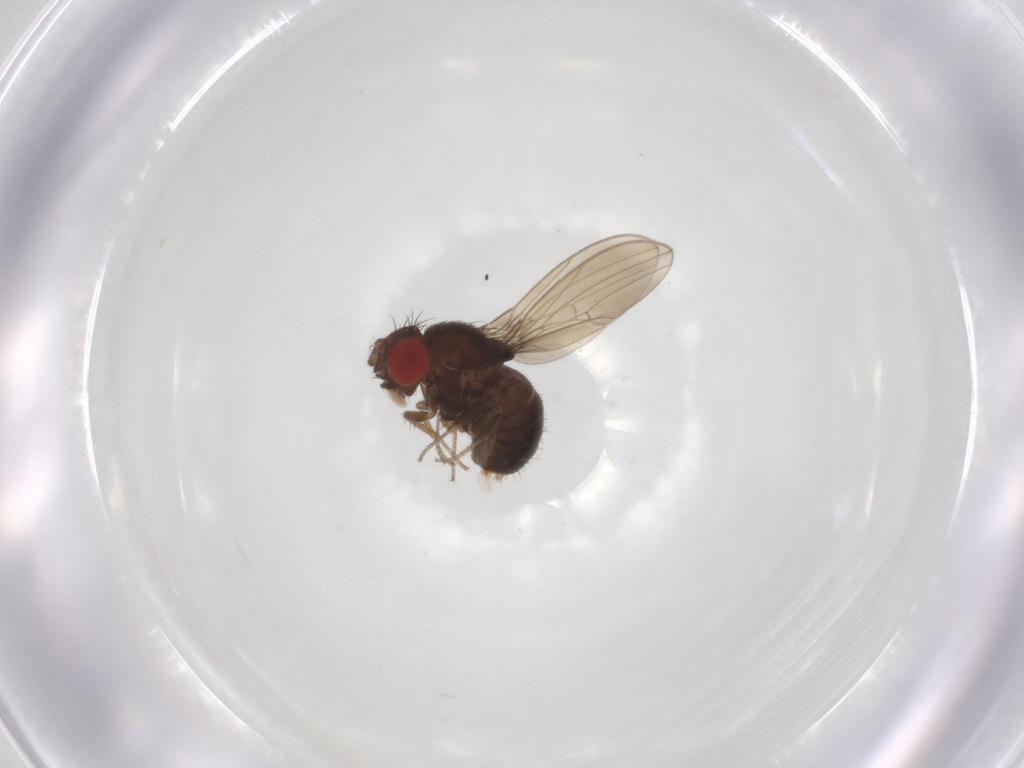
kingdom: Animalia
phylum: Arthropoda
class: Insecta
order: Diptera
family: Drosophilidae
